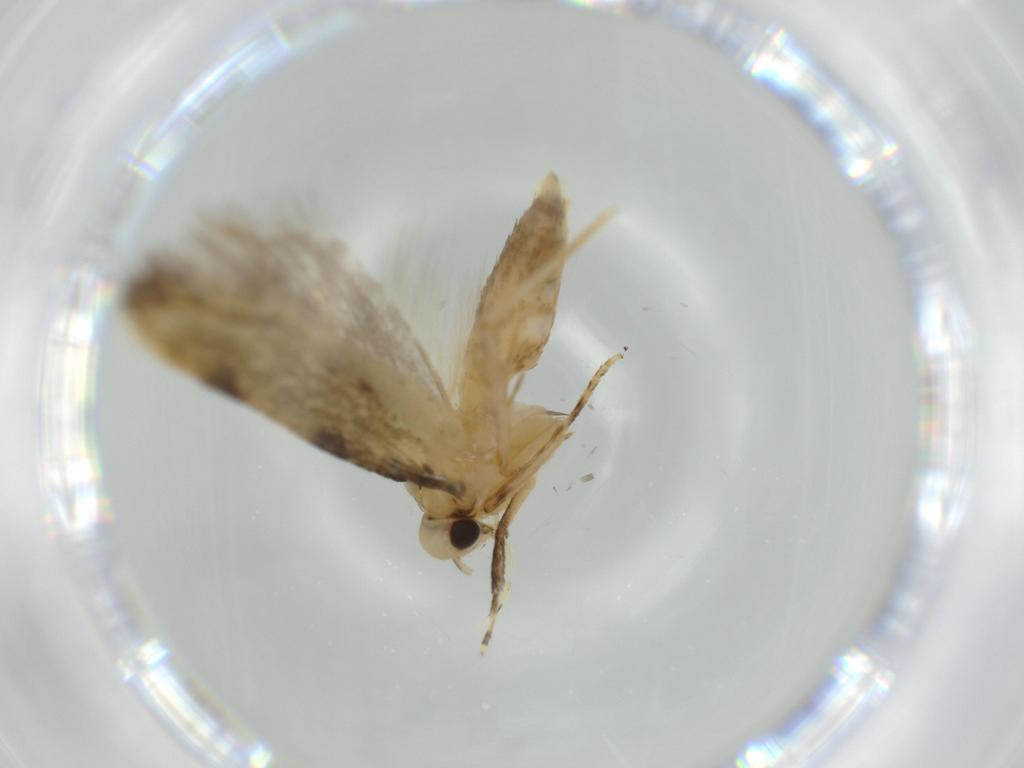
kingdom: Animalia
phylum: Arthropoda
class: Insecta
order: Lepidoptera
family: Autostichidae
